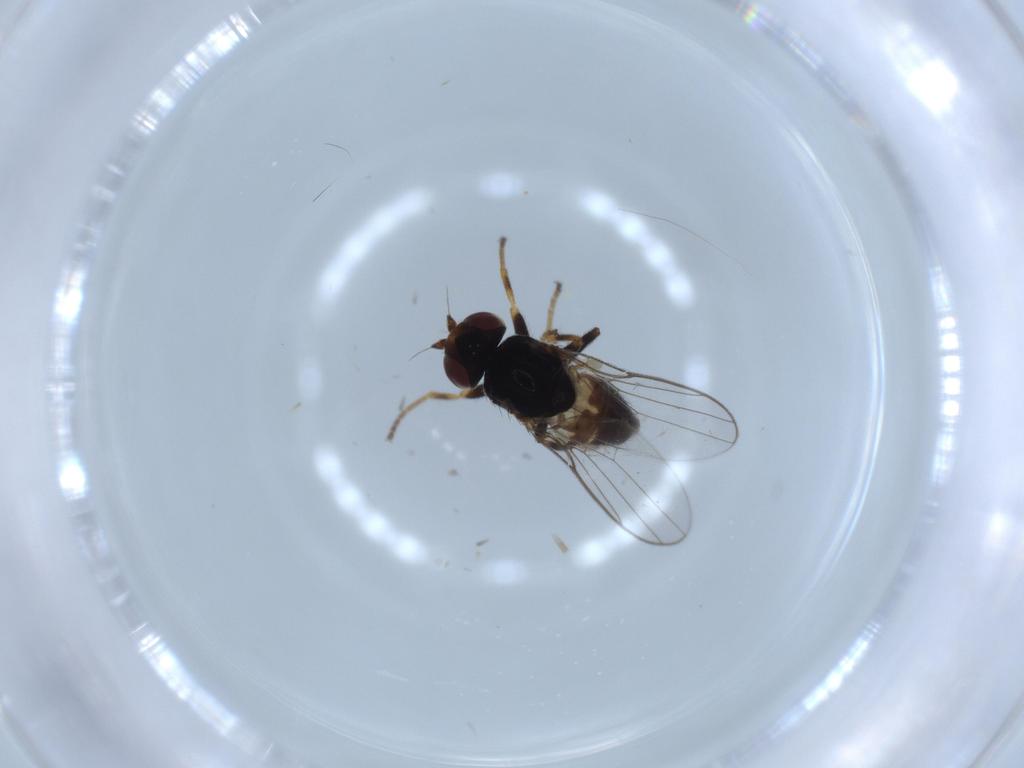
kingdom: Animalia
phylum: Arthropoda
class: Insecta
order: Diptera
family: Chloropidae
